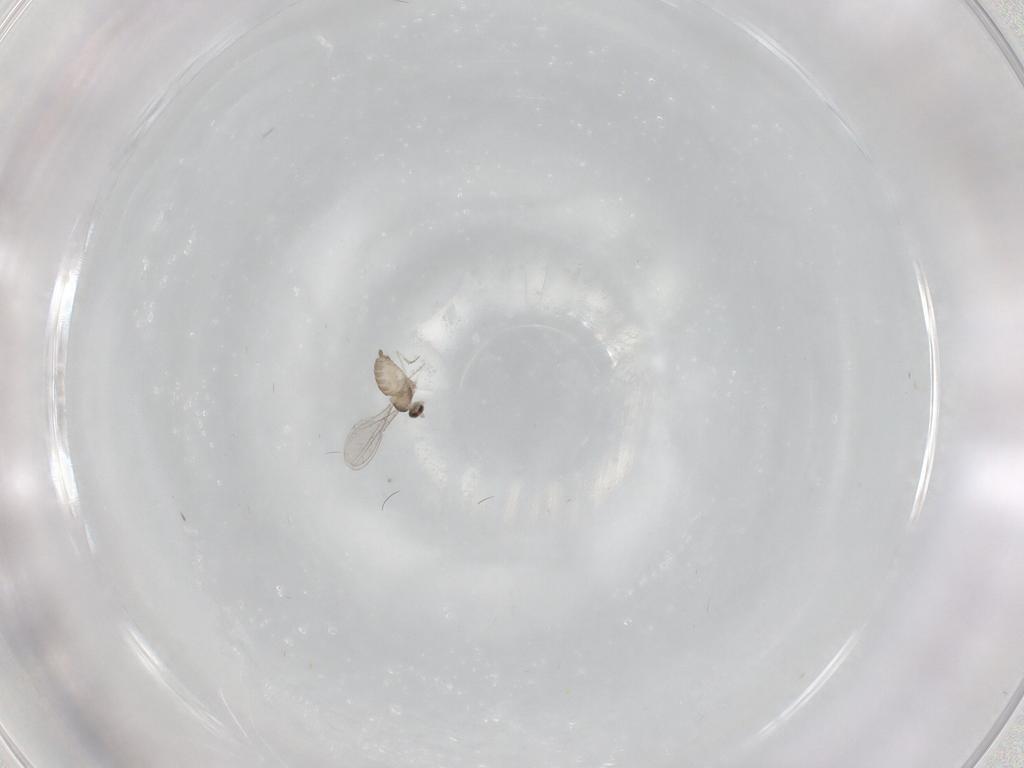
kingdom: Animalia
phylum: Arthropoda
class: Insecta
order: Diptera
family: Cecidomyiidae
